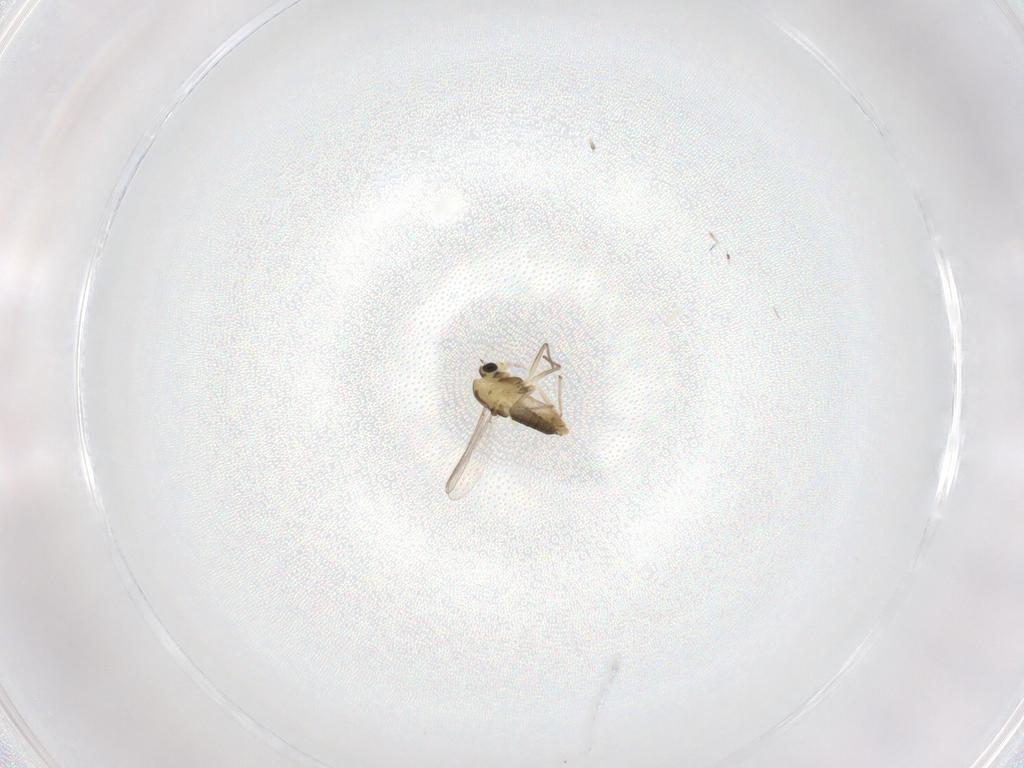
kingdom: Animalia
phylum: Arthropoda
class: Insecta
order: Diptera
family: Chironomidae
